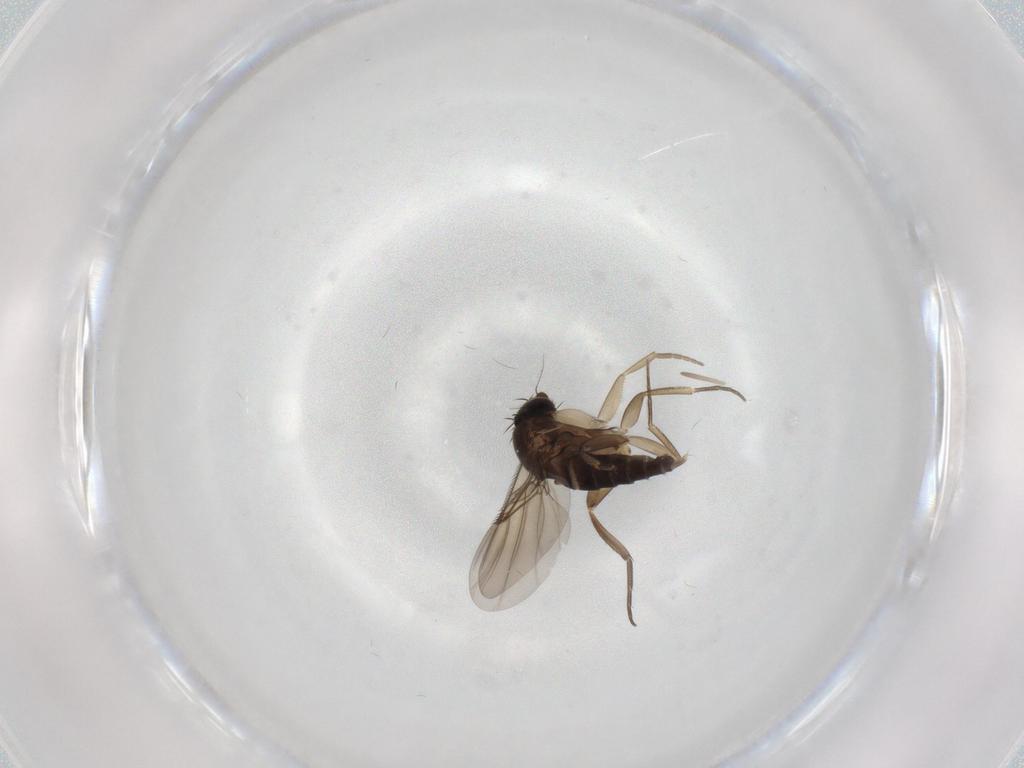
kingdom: Animalia
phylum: Arthropoda
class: Insecta
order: Diptera
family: Phoridae
